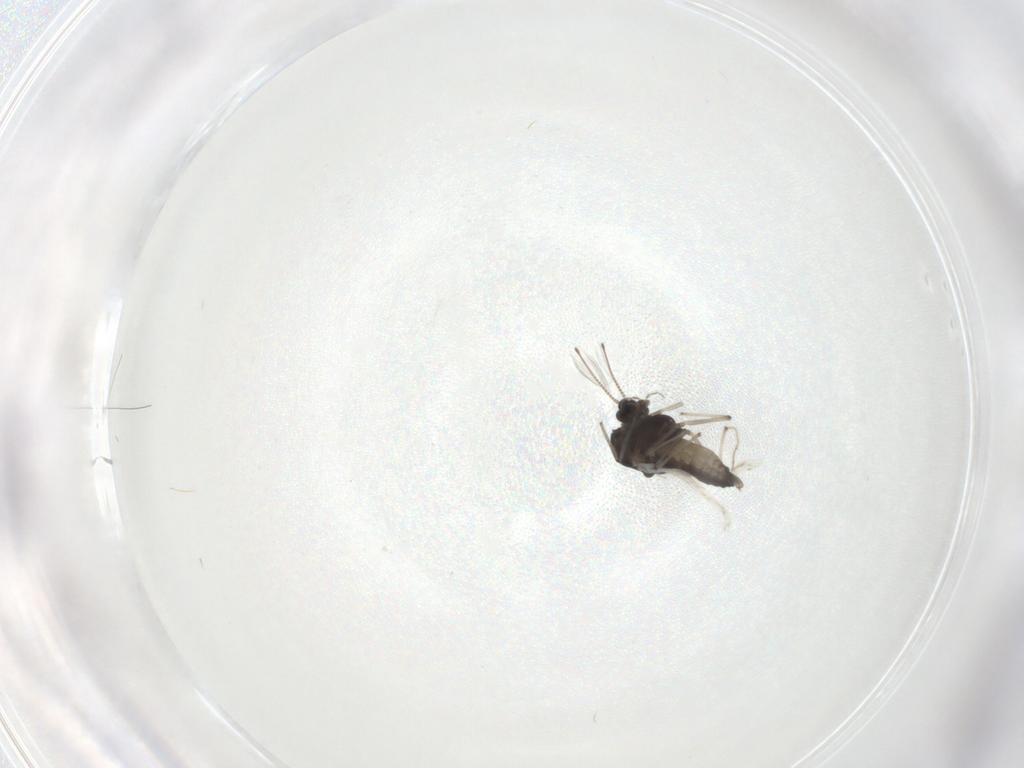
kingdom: Animalia
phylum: Arthropoda
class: Insecta
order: Diptera
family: Chironomidae
